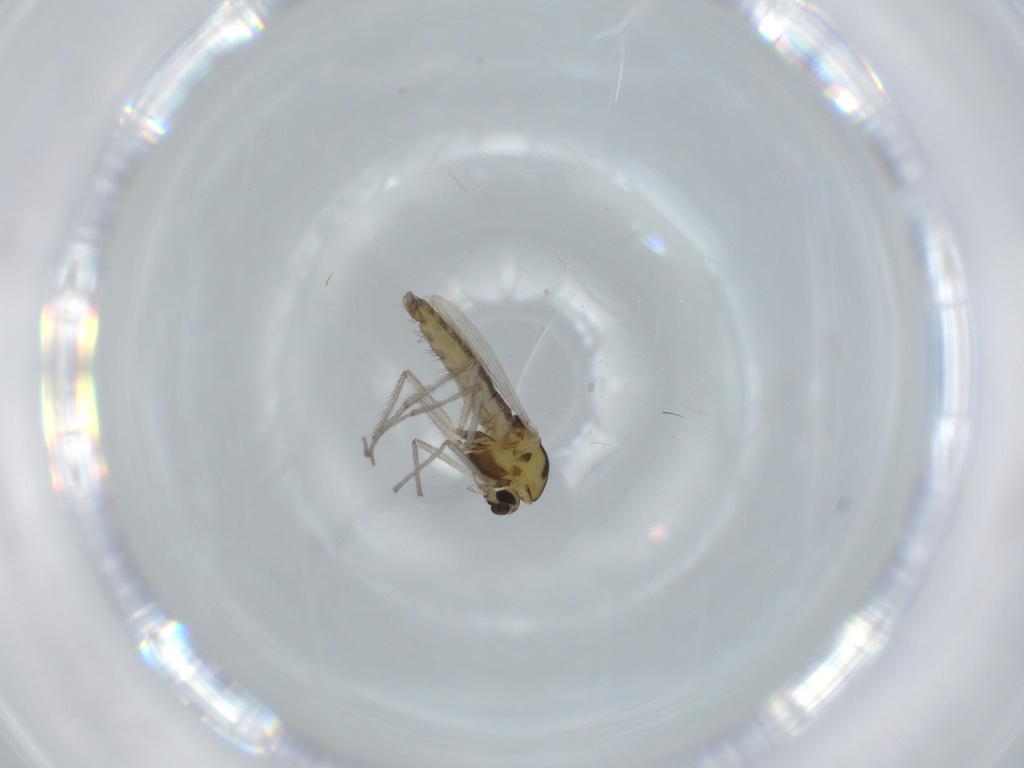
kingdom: Animalia
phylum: Arthropoda
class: Insecta
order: Diptera
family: Chironomidae
